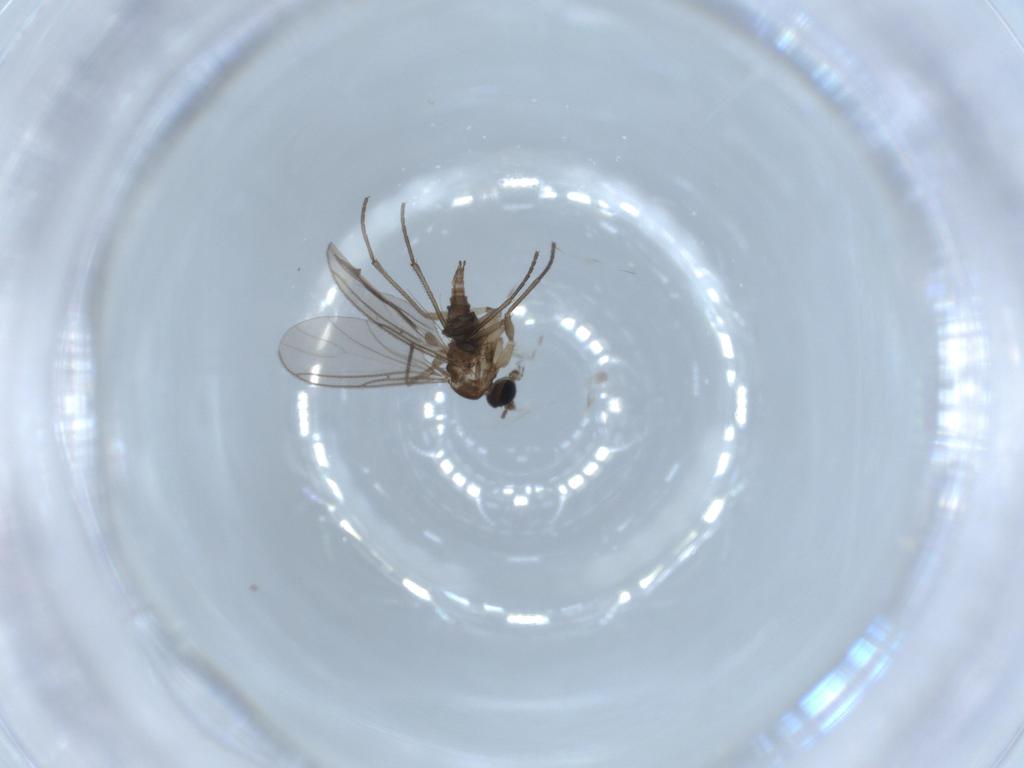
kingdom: Animalia
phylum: Arthropoda
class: Insecta
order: Diptera
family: Sciaridae
